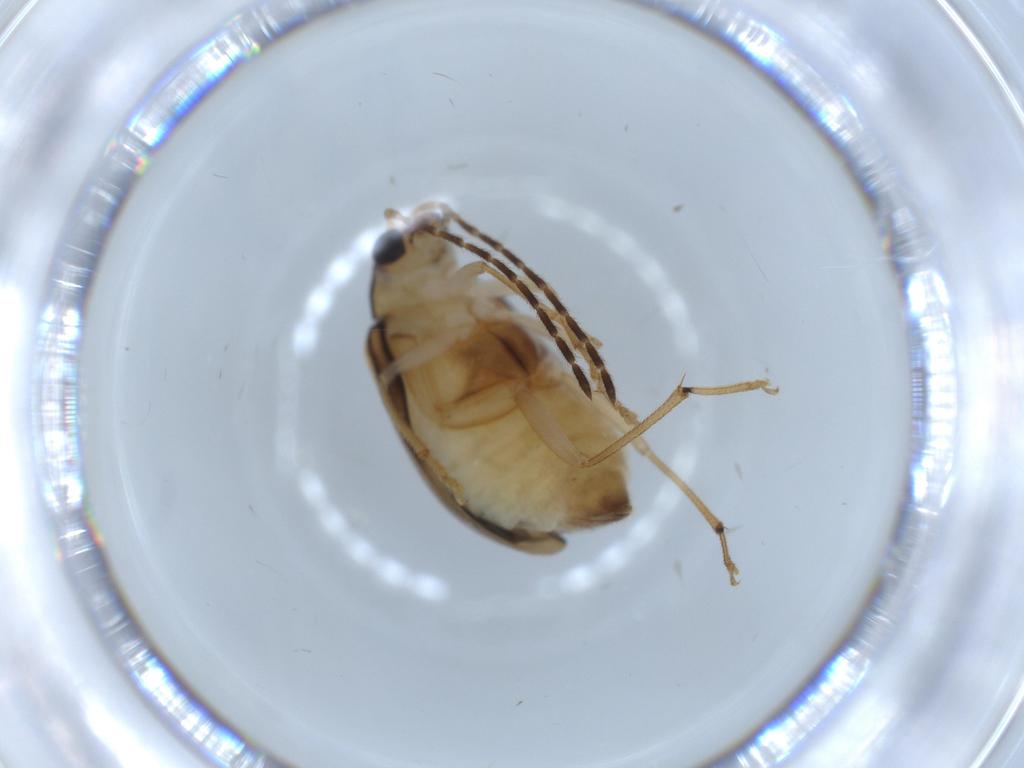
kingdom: Animalia
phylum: Arthropoda
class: Insecta
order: Coleoptera
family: Chrysomelidae
